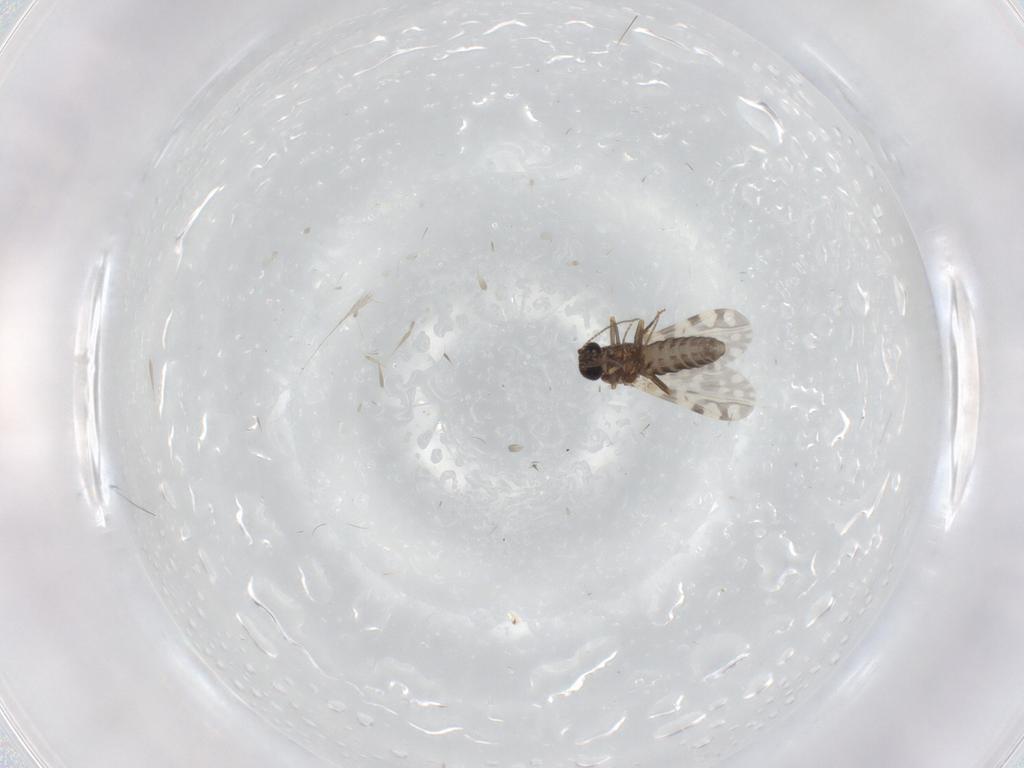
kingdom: Animalia
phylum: Arthropoda
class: Insecta
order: Diptera
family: Ceratopogonidae
